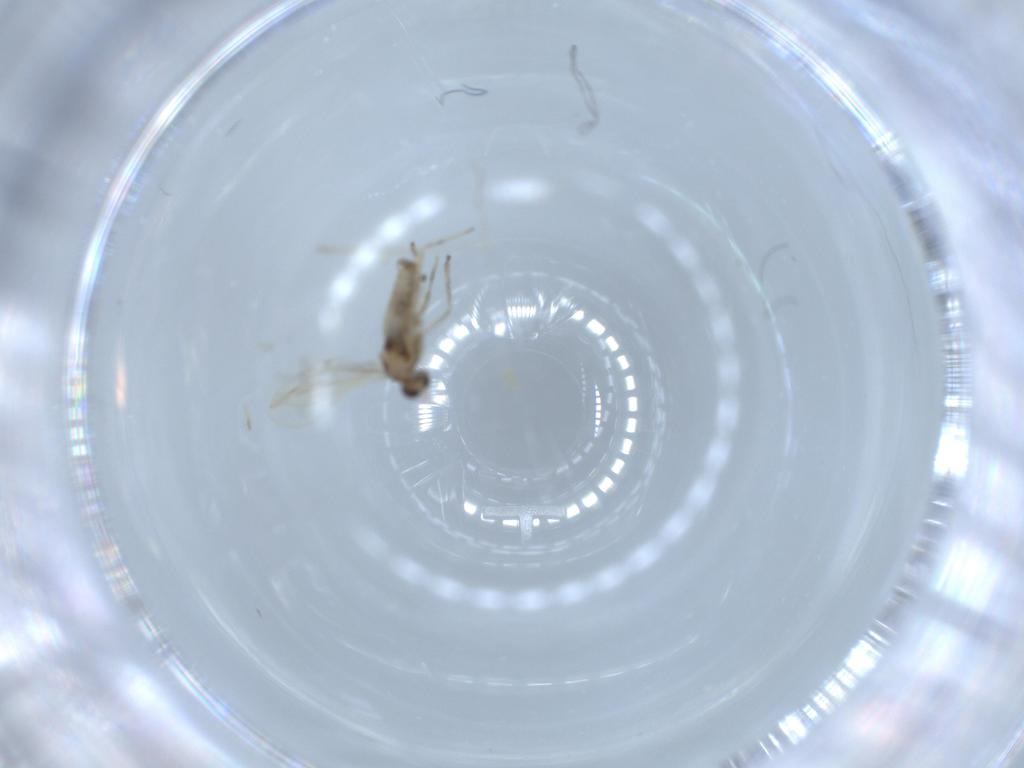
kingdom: Animalia
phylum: Arthropoda
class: Insecta
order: Diptera
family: Cecidomyiidae
